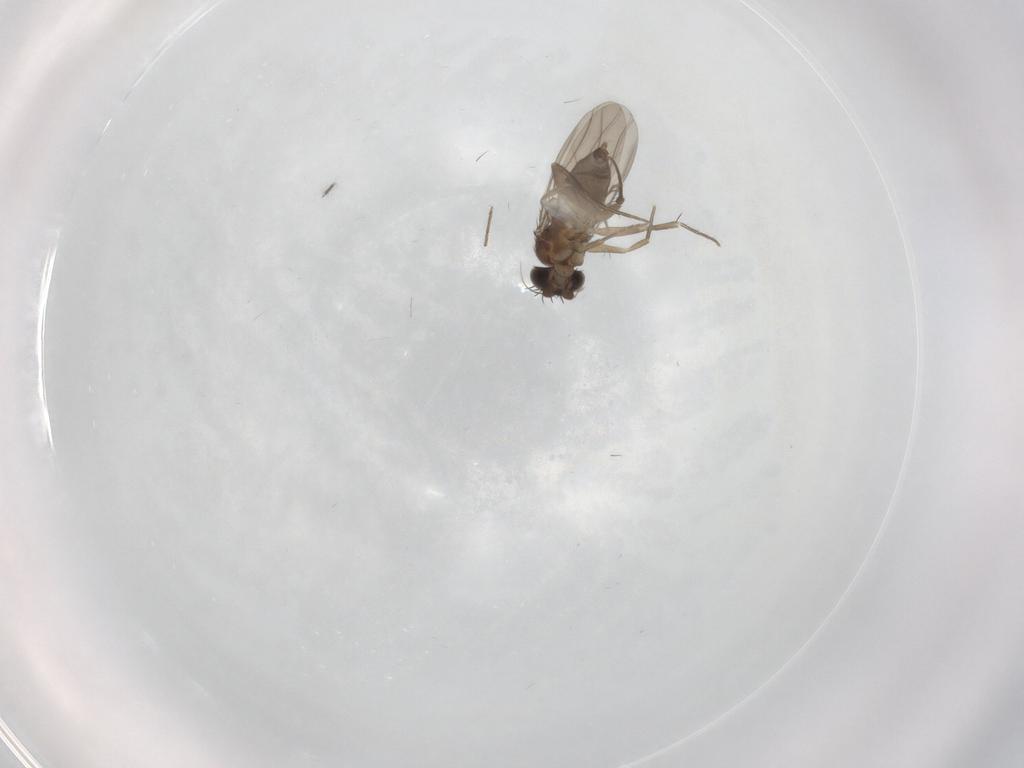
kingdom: Animalia
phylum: Arthropoda
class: Insecta
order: Diptera
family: Phoridae
